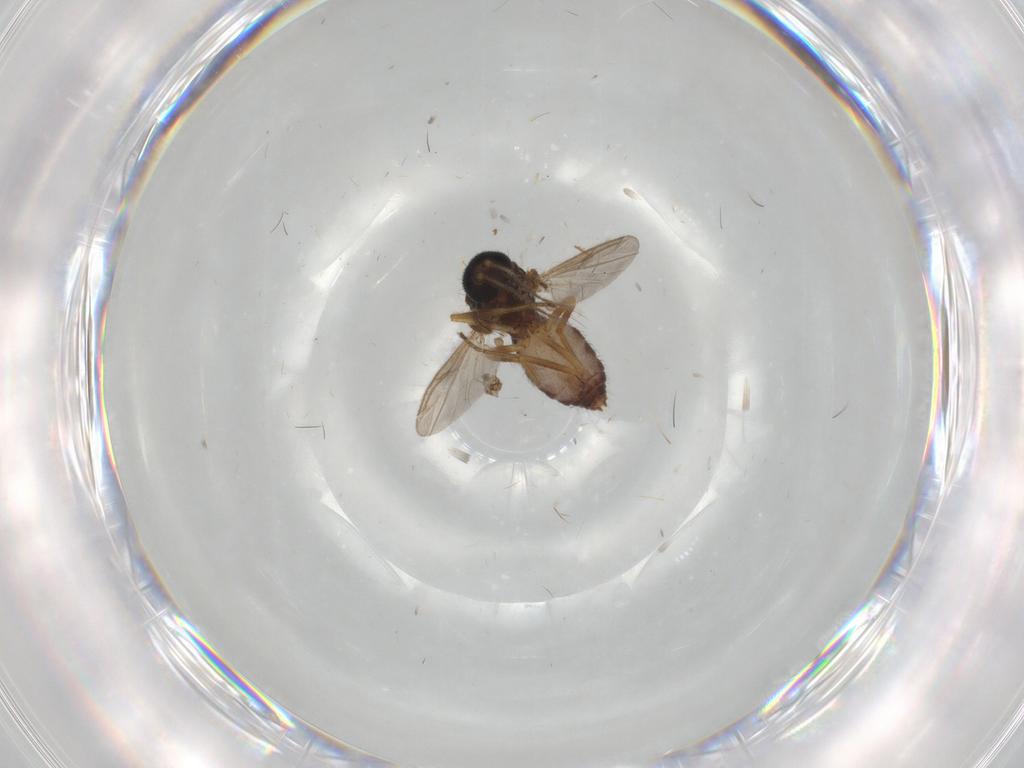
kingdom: Animalia
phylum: Arthropoda
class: Insecta
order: Diptera
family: Ceratopogonidae
